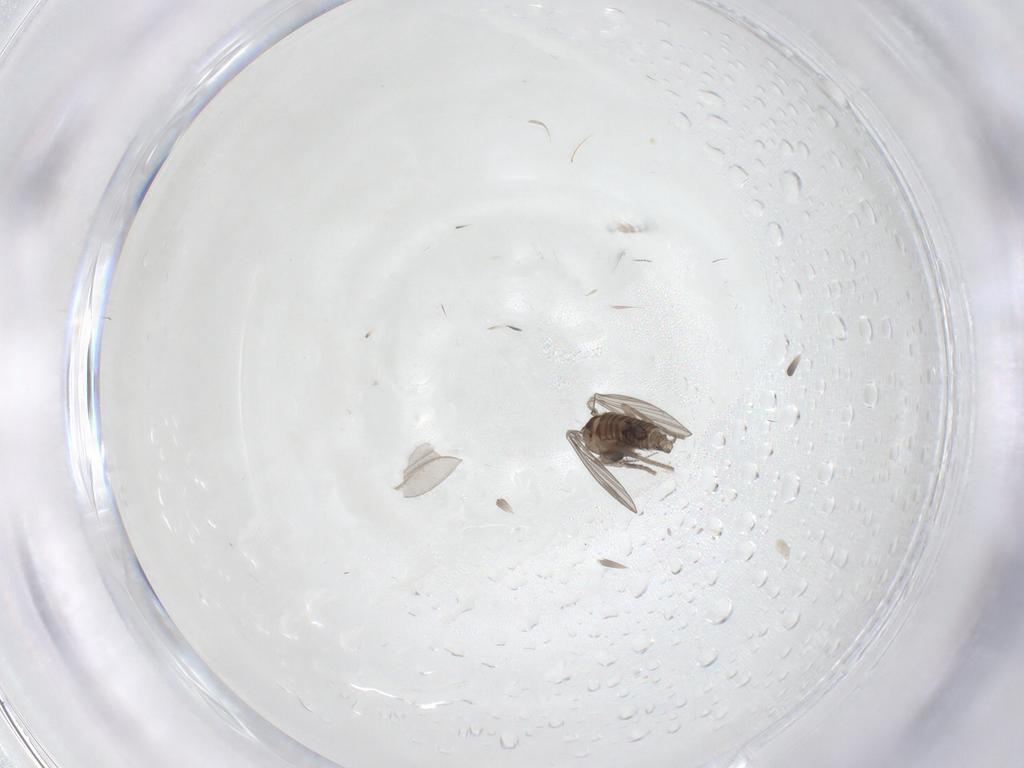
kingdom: Animalia
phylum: Arthropoda
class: Insecta
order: Diptera
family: Psychodidae
